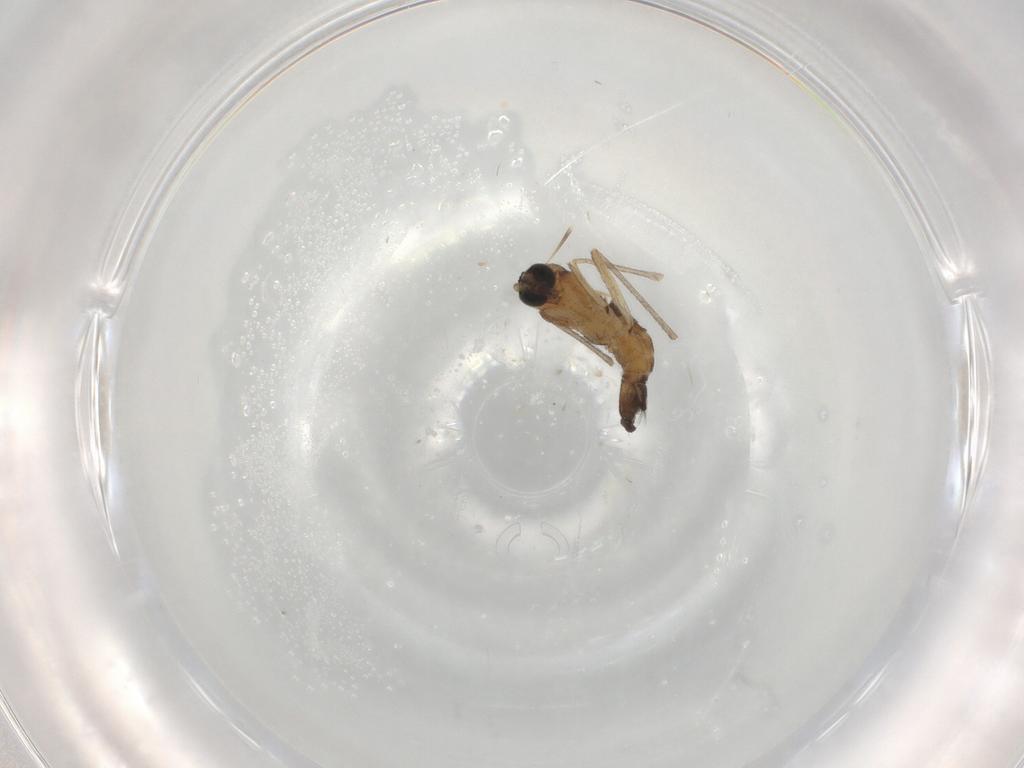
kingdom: Animalia
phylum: Arthropoda
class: Insecta
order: Diptera
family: Sciaridae
